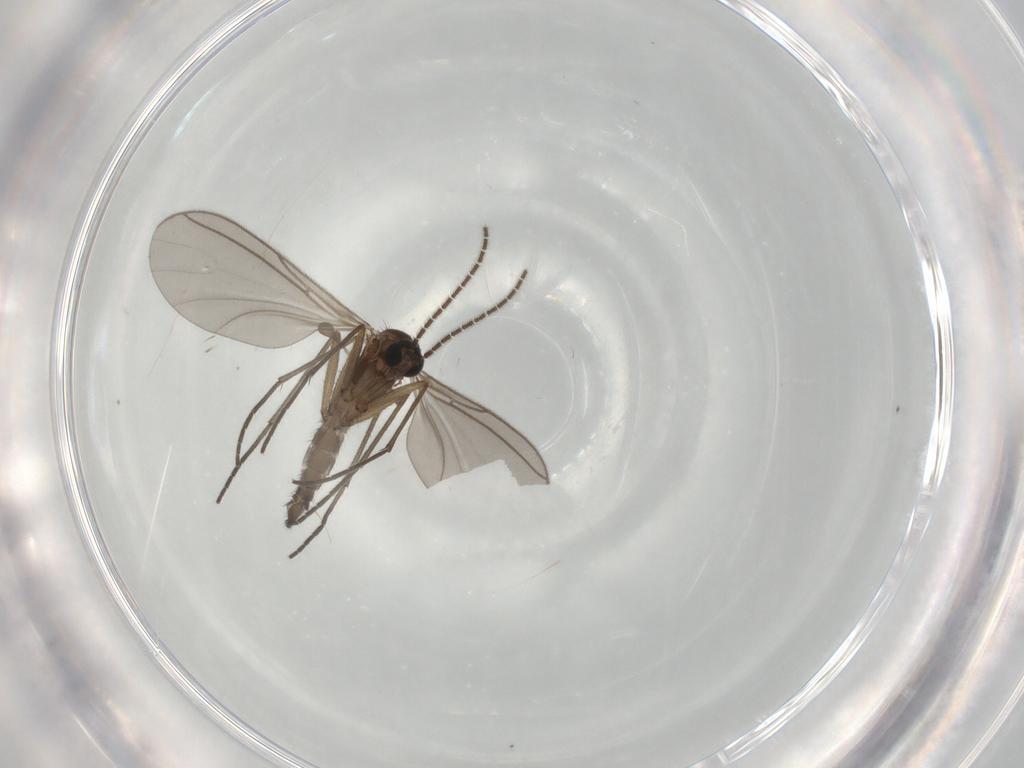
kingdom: Animalia
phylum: Arthropoda
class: Insecta
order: Diptera
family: Sciaridae
